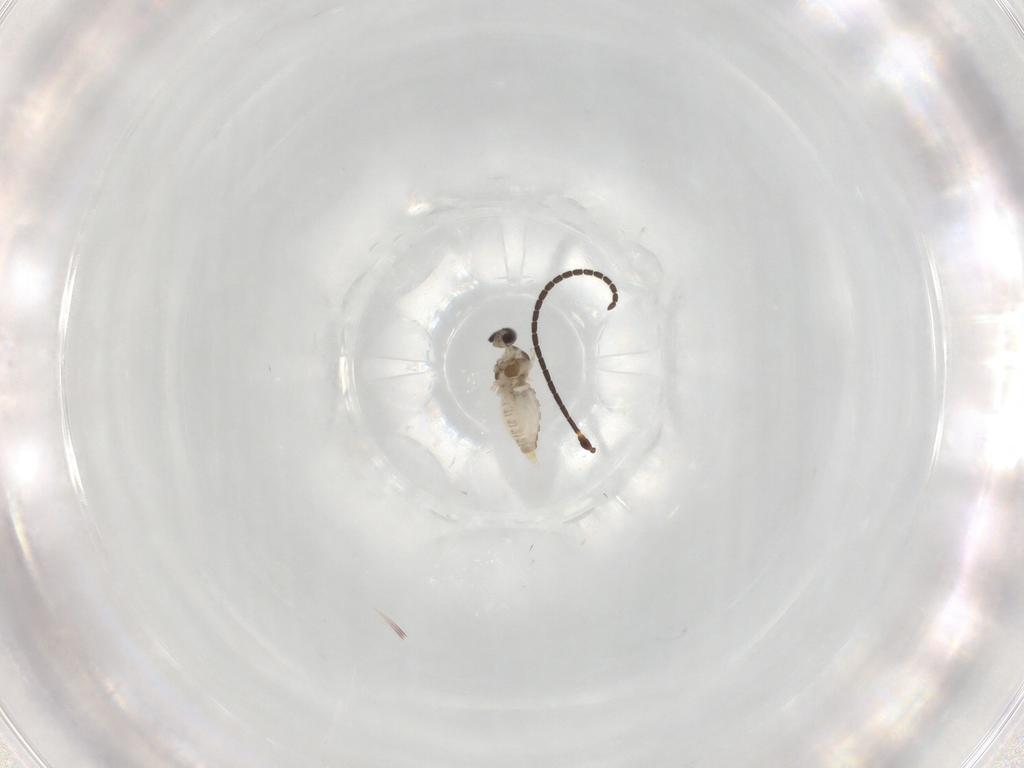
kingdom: Animalia
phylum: Arthropoda
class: Insecta
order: Diptera
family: Cecidomyiidae
